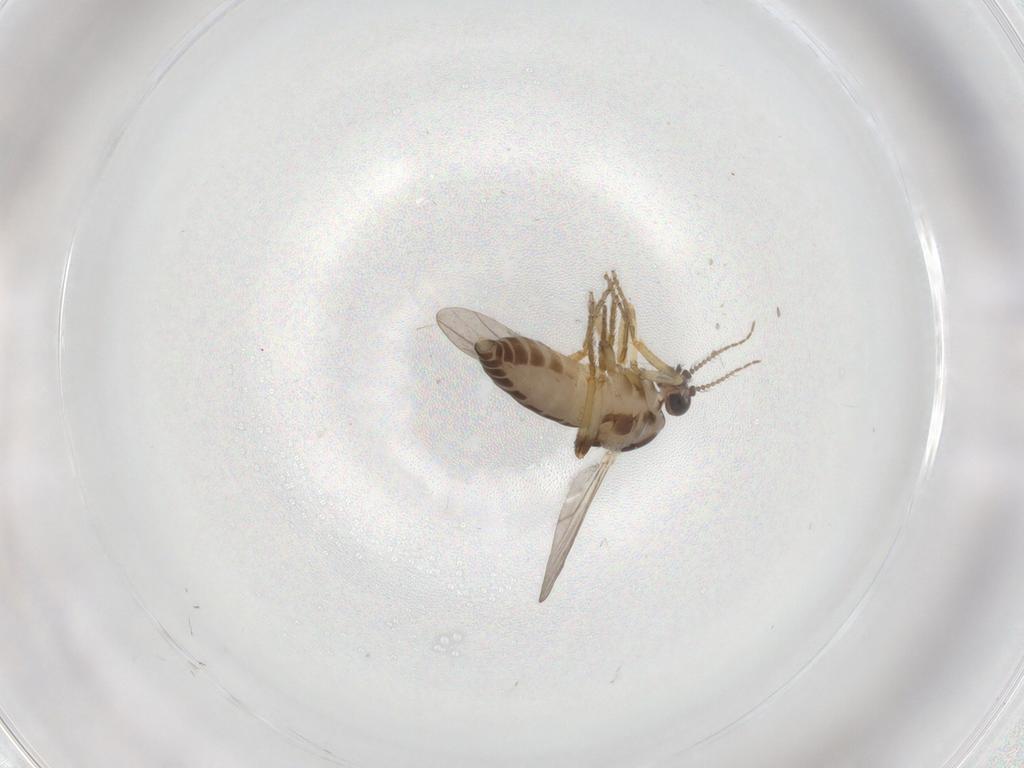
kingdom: Animalia
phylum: Arthropoda
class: Insecta
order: Diptera
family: Ceratopogonidae
